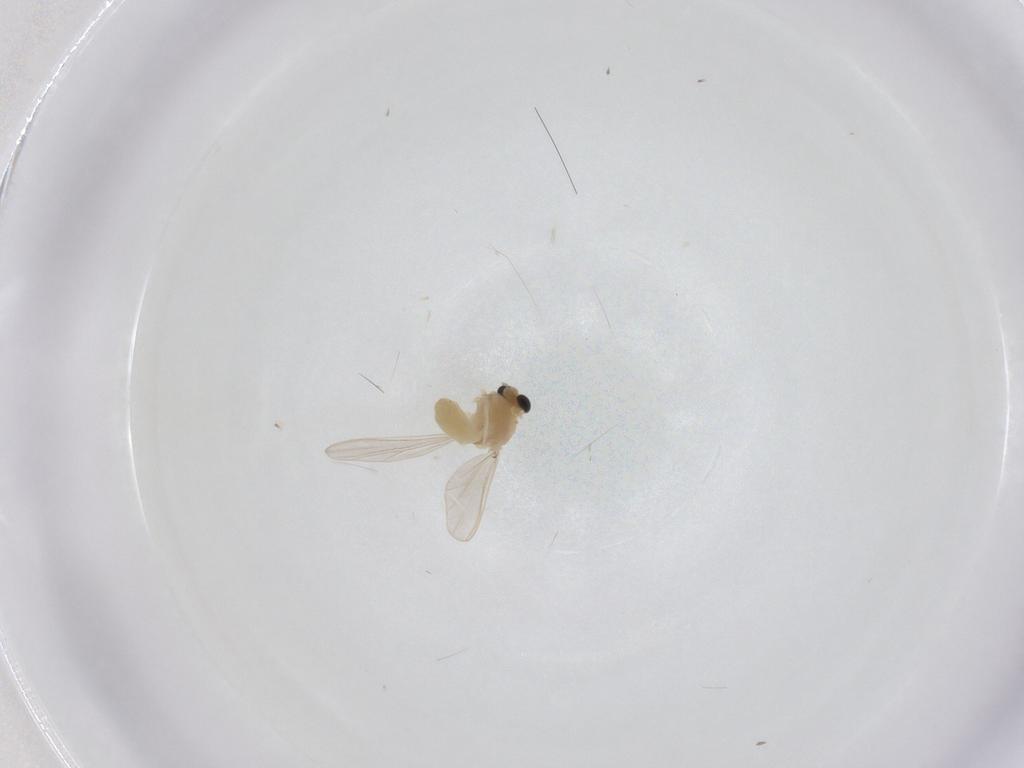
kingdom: Animalia
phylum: Arthropoda
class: Insecta
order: Diptera
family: Chironomidae
